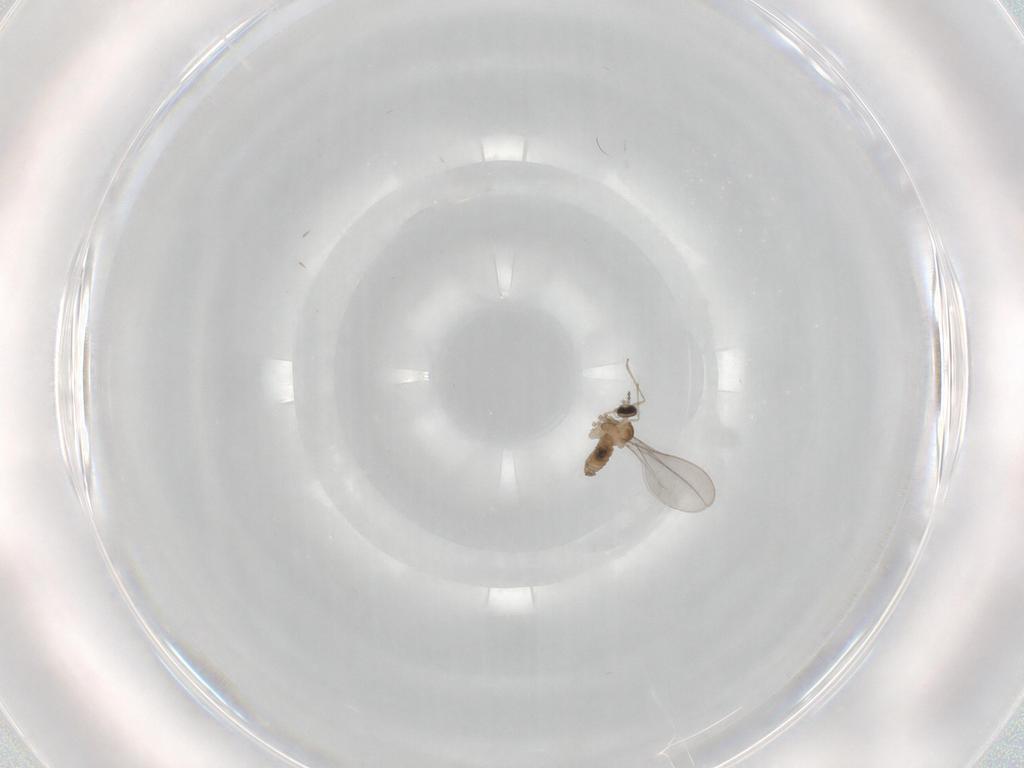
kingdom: Animalia
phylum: Arthropoda
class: Insecta
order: Diptera
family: Cecidomyiidae
